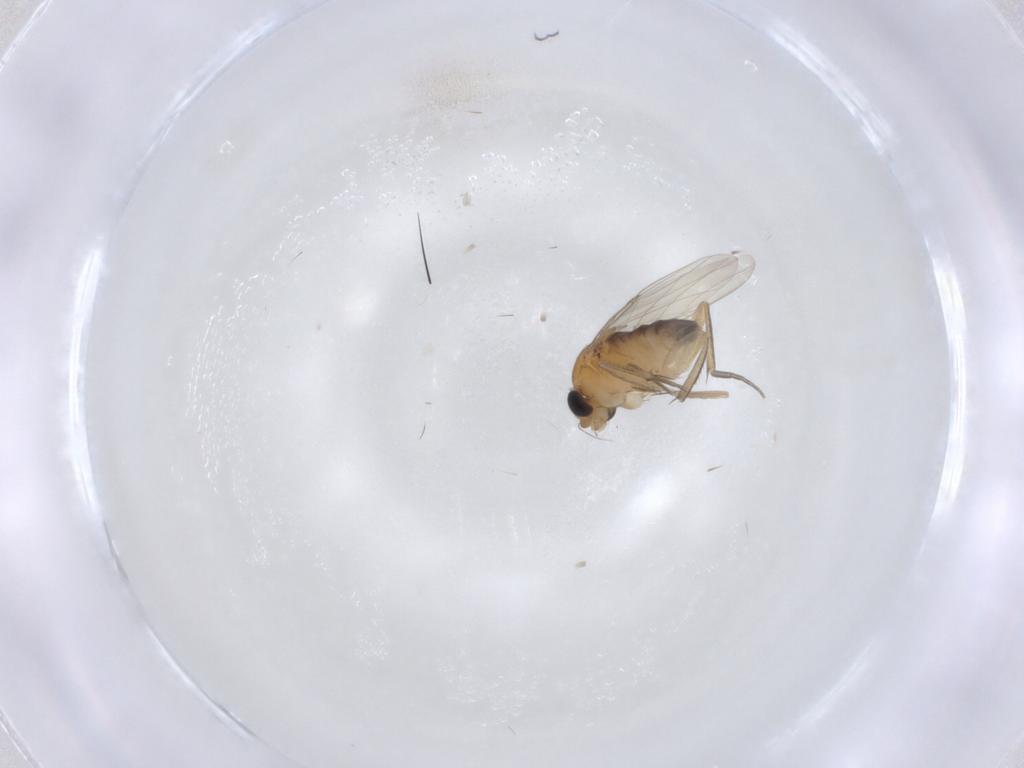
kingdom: Animalia
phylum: Arthropoda
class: Insecta
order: Diptera
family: Phoridae
